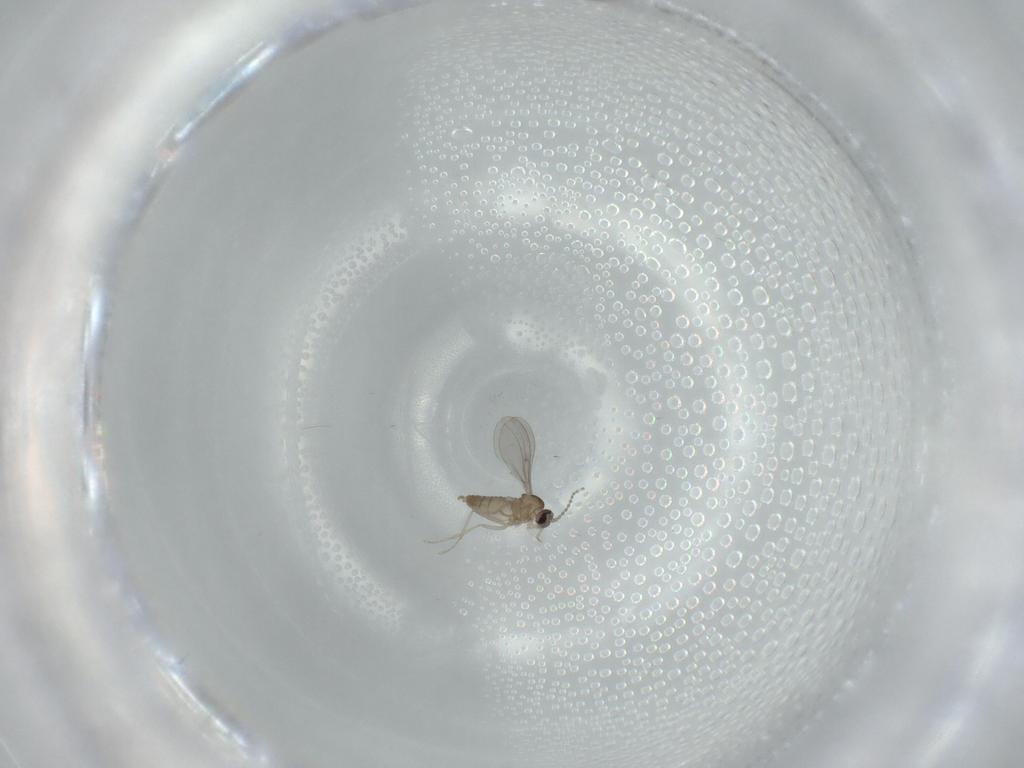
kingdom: Animalia
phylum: Arthropoda
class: Insecta
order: Diptera
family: Cecidomyiidae
